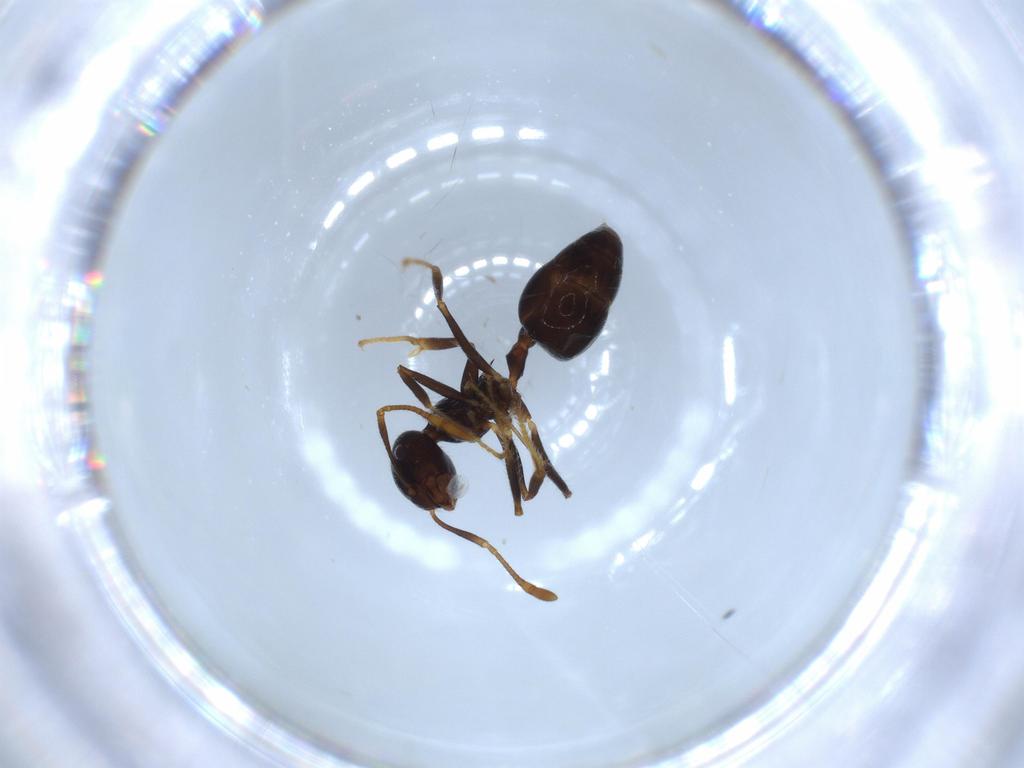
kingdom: Animalia
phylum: Arthropoda
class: Insecta
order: Hymenoptera
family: Formicidae
